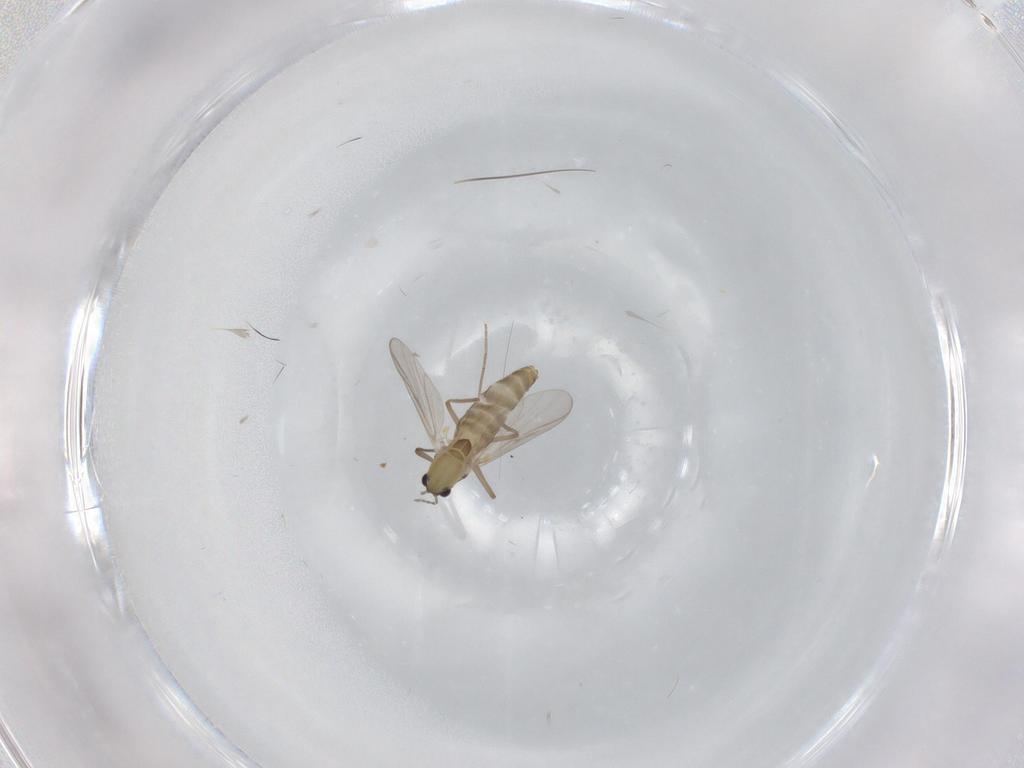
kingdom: Animalia
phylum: Arthropoda
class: Insecta
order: Diptera
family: Chironomidae
